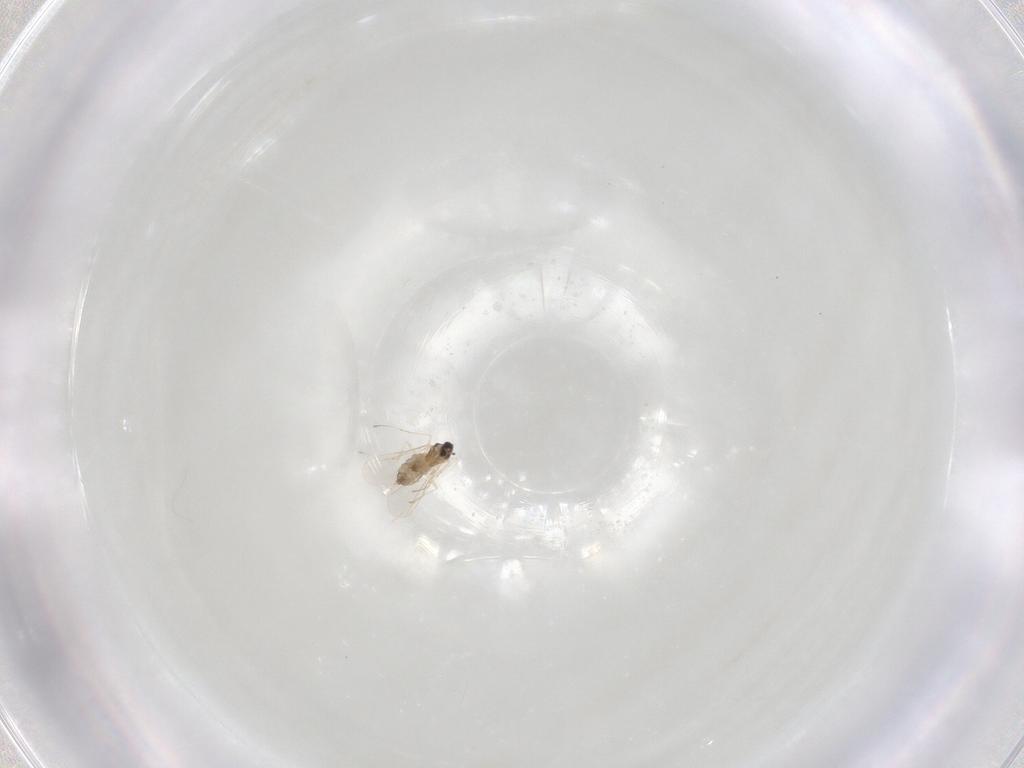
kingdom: Animalia
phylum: Arthropoda
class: Insecta
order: Diptera
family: Cecidomyiidae
